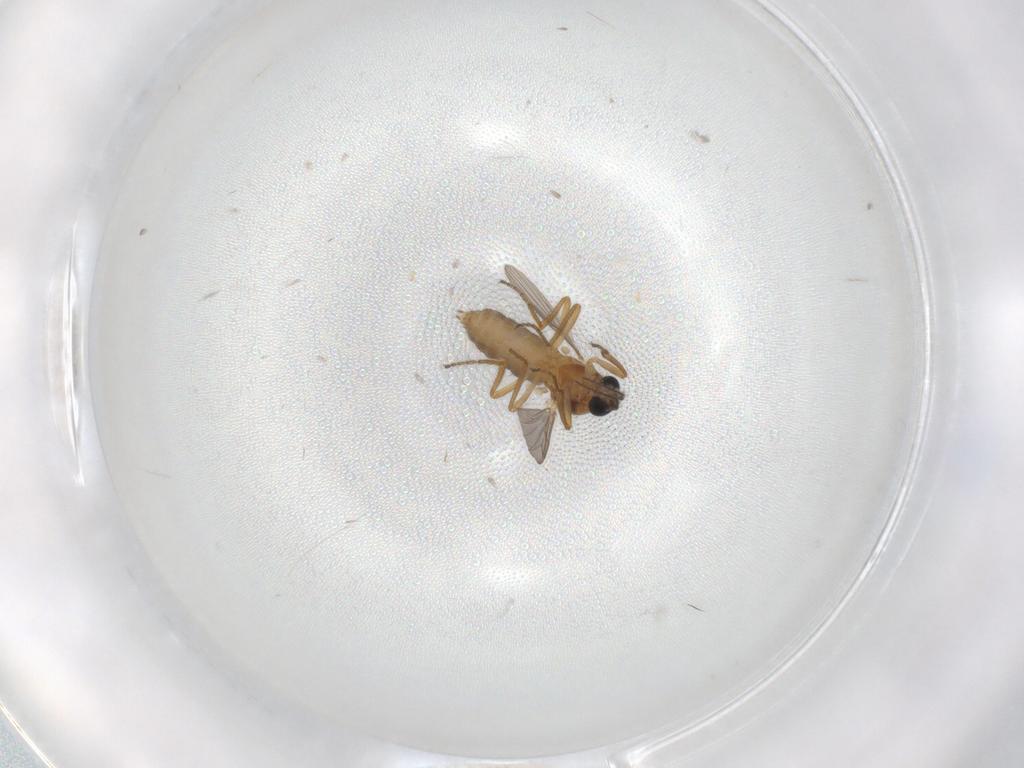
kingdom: Animalia
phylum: Arthropoda
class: Insecta
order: Diptera
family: Ceratopogonidae
